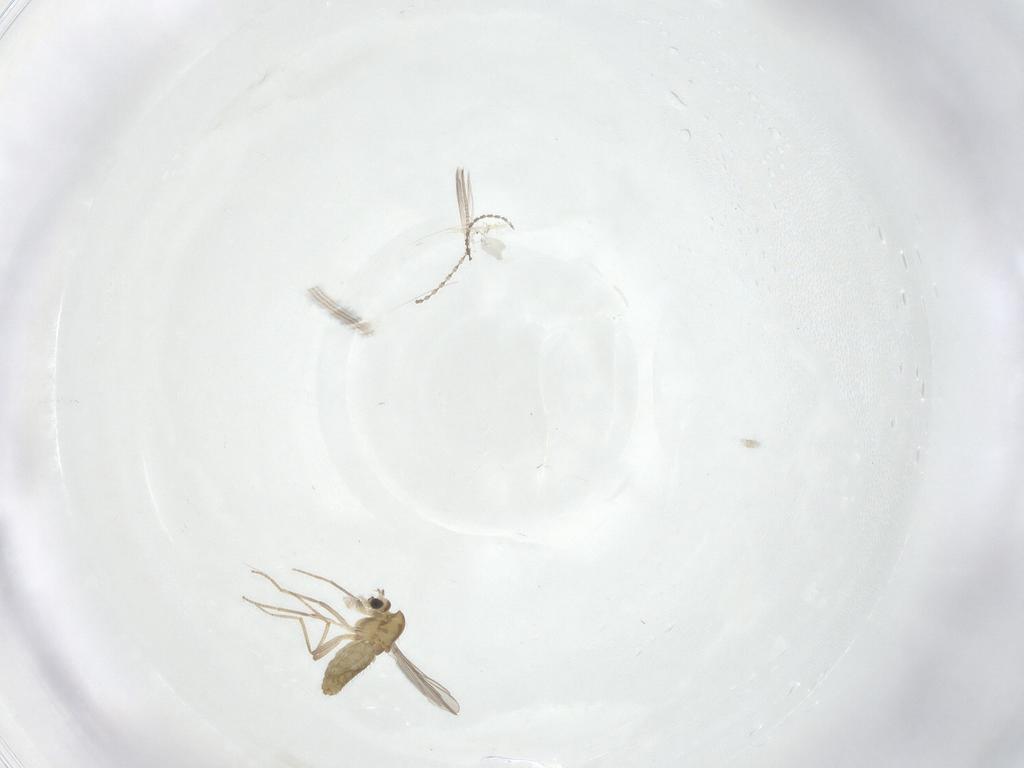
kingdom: Animalia
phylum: Arthropoda
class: Insecta
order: Diptera
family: Chironomidae
